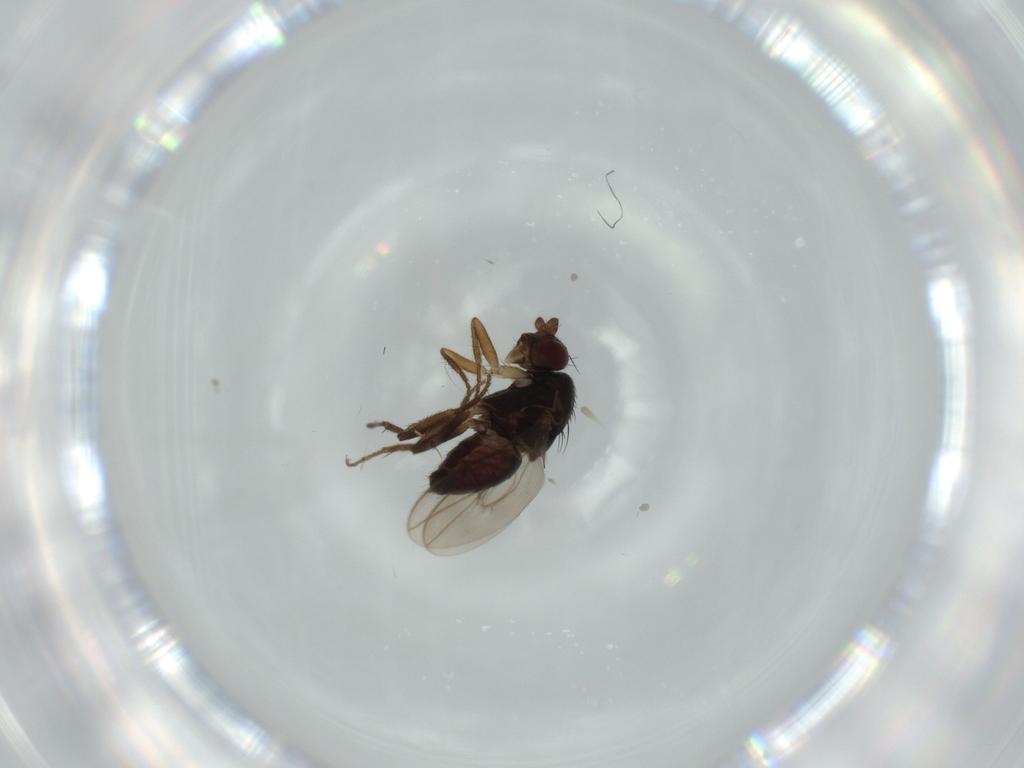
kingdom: Animalia
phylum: Arthropoda
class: Insecta
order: Diptera
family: Sphaeroceridae
